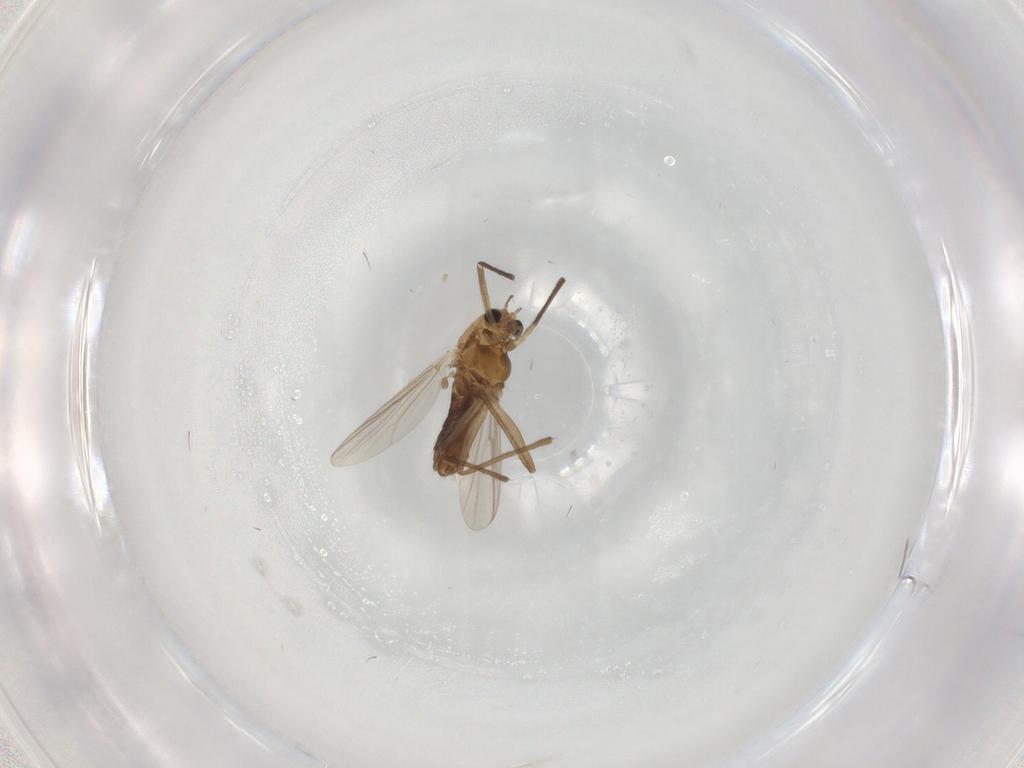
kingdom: Animalia
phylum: Arthropoda
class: Insecta
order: Diptera
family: Chironomidae
